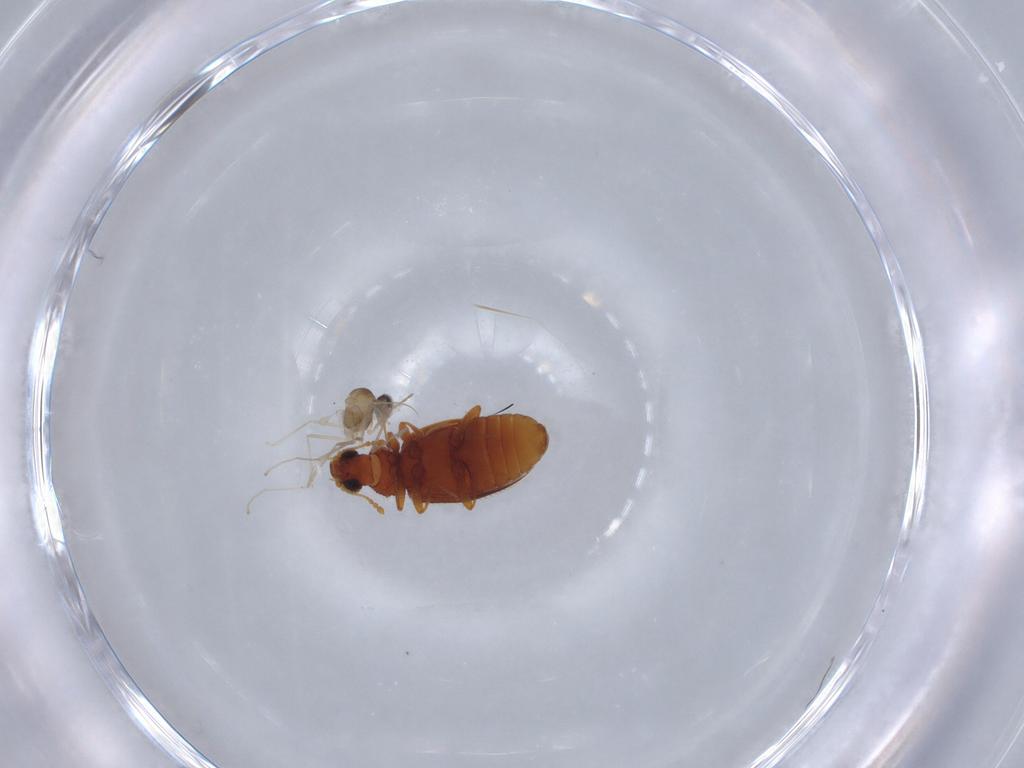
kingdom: Animalia
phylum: Arthropoda
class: Insecta
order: Coleoptera
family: Latridiidae
